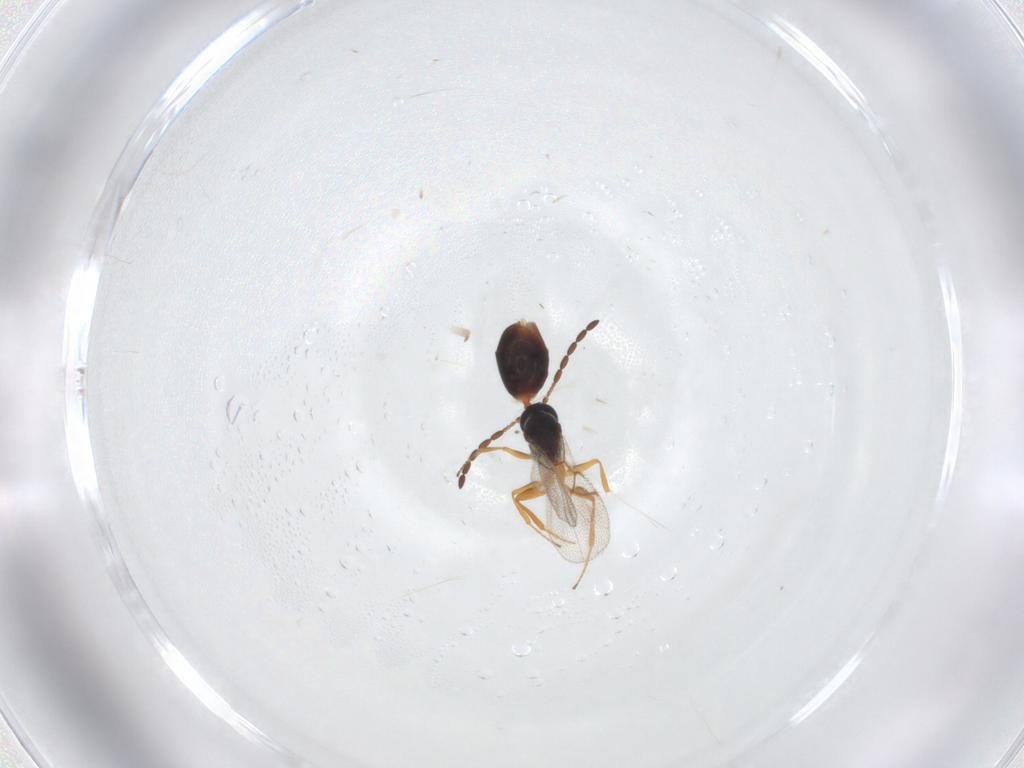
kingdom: Animalia
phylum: Arthropoda
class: Insecta
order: Hymenoptera
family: Figitidae
